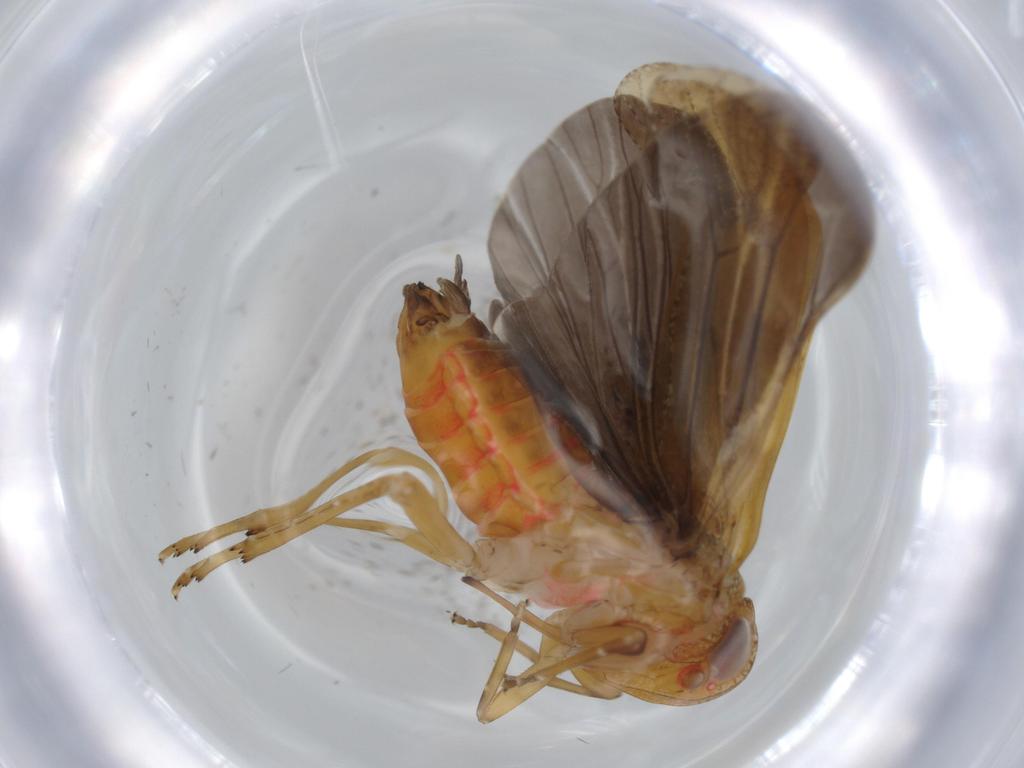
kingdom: Animalia
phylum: Arthropoda
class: Insecta
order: Hemiptera
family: Achilidae
